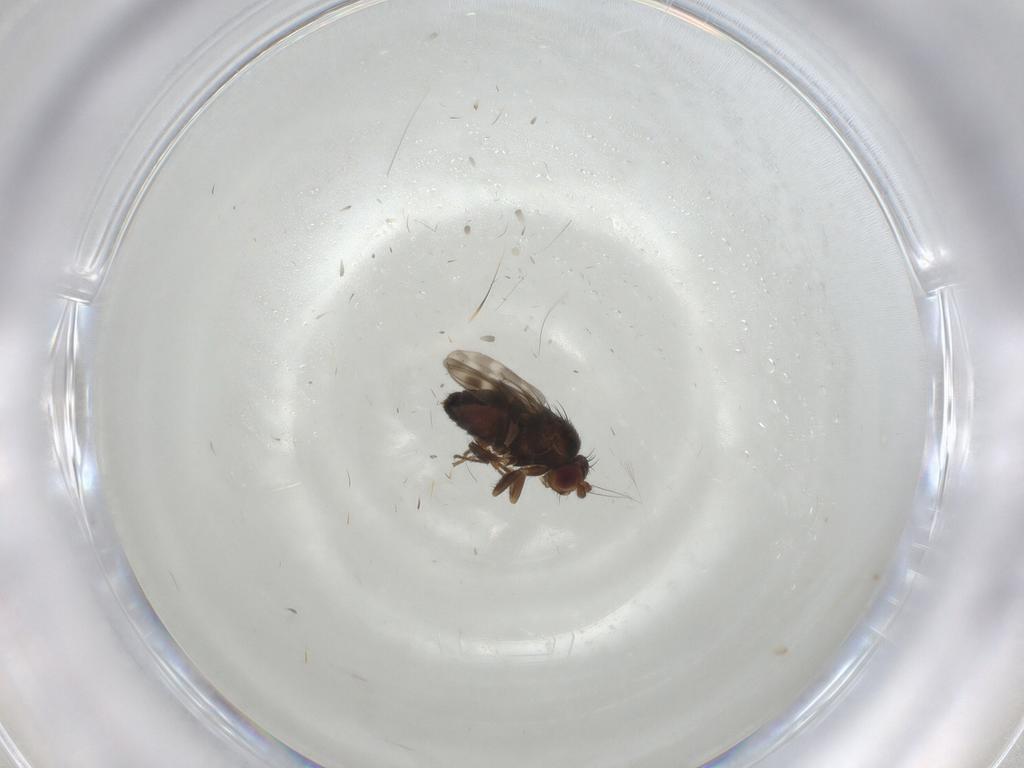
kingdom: Animalia
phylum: Arthropoda
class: Insecta
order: Diptera
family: Sphaeroceridae
